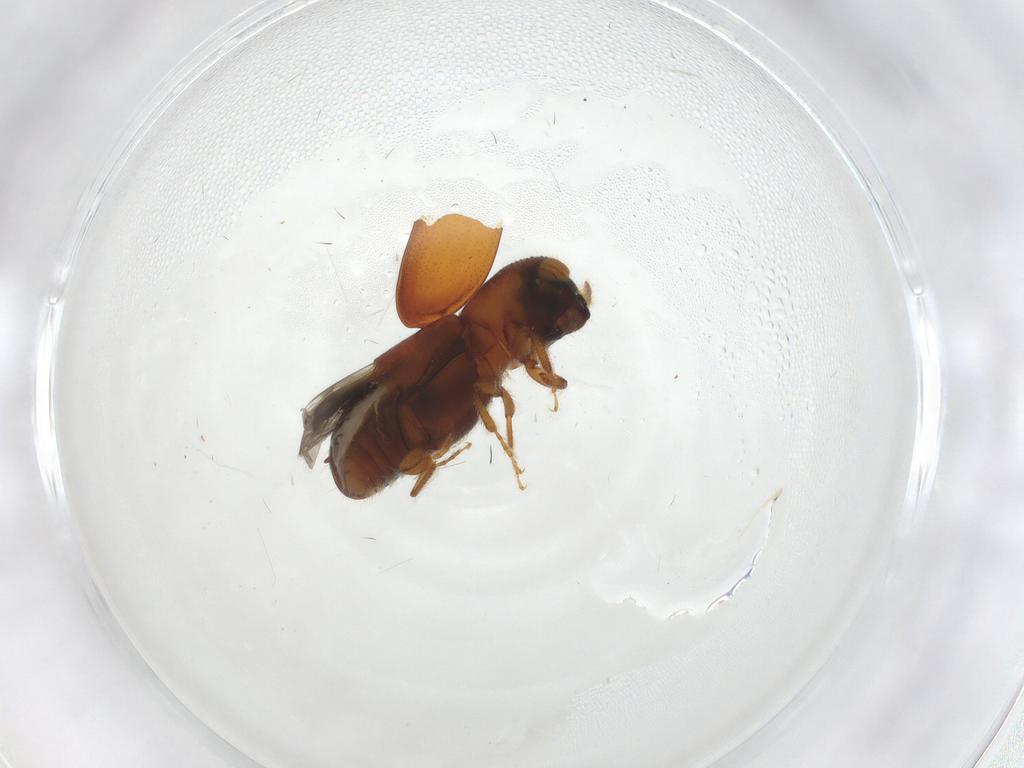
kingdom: Animalia
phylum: Arthropoda
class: Insecta
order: Coleoptera
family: Curculionidae
